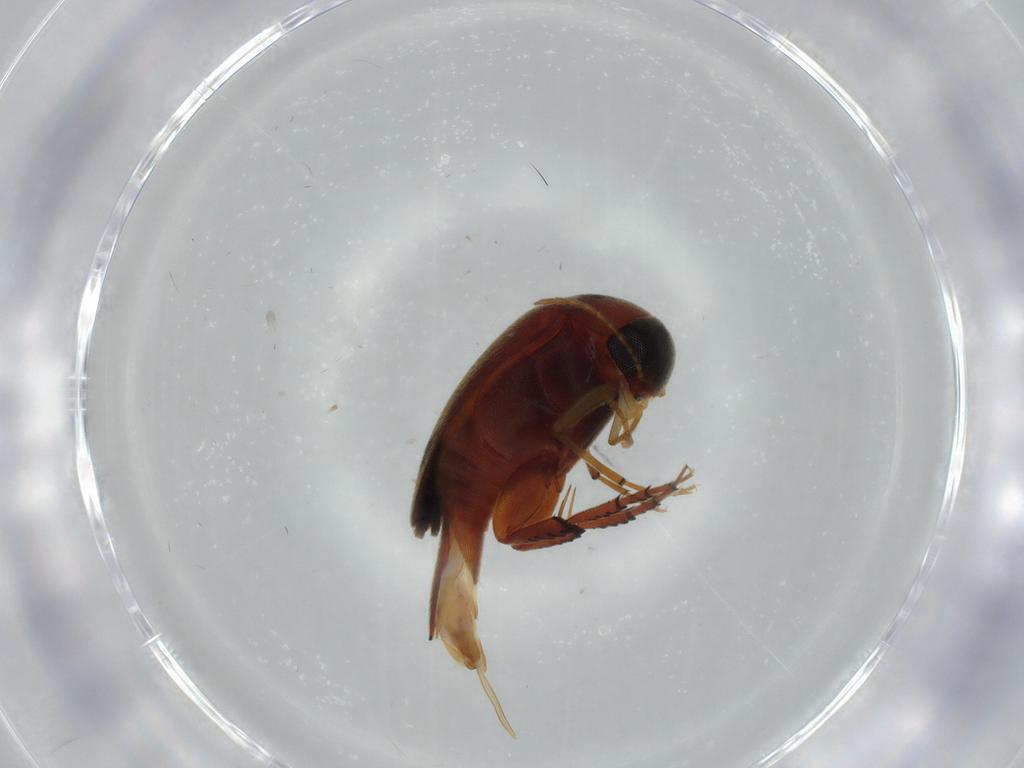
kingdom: Animalia
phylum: Arthropoda
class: Insecta
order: Coleoptera
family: Mordellidae
